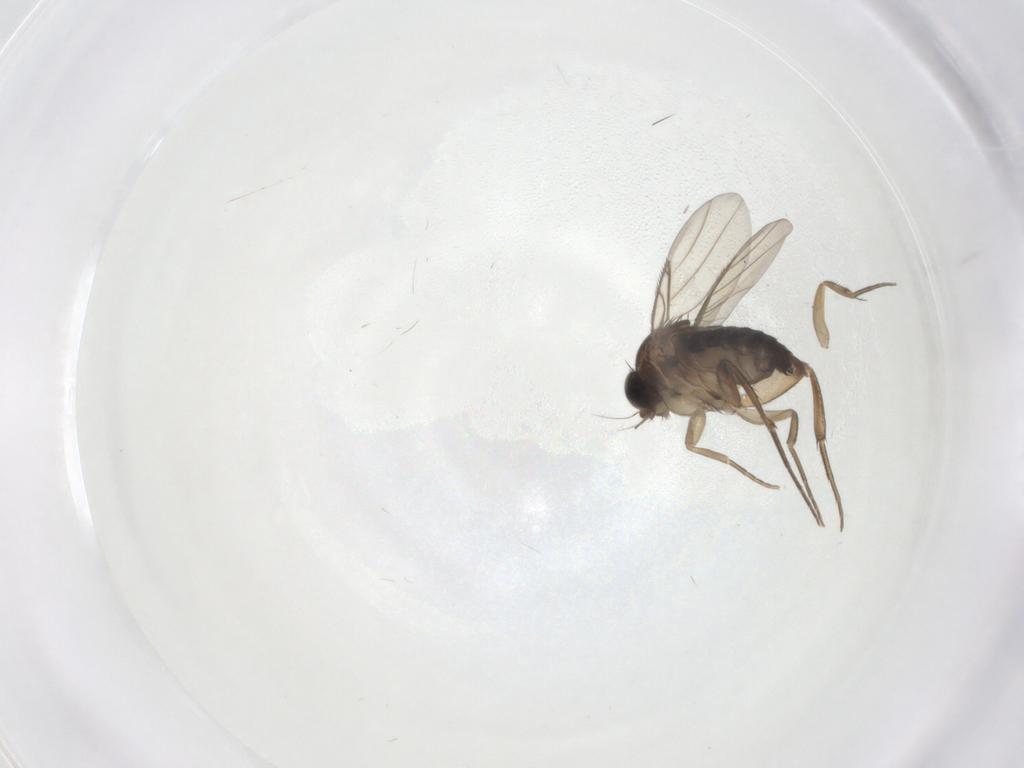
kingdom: Animalia
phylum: Arthropoda
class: Insecta
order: Diptera
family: Phoridae
